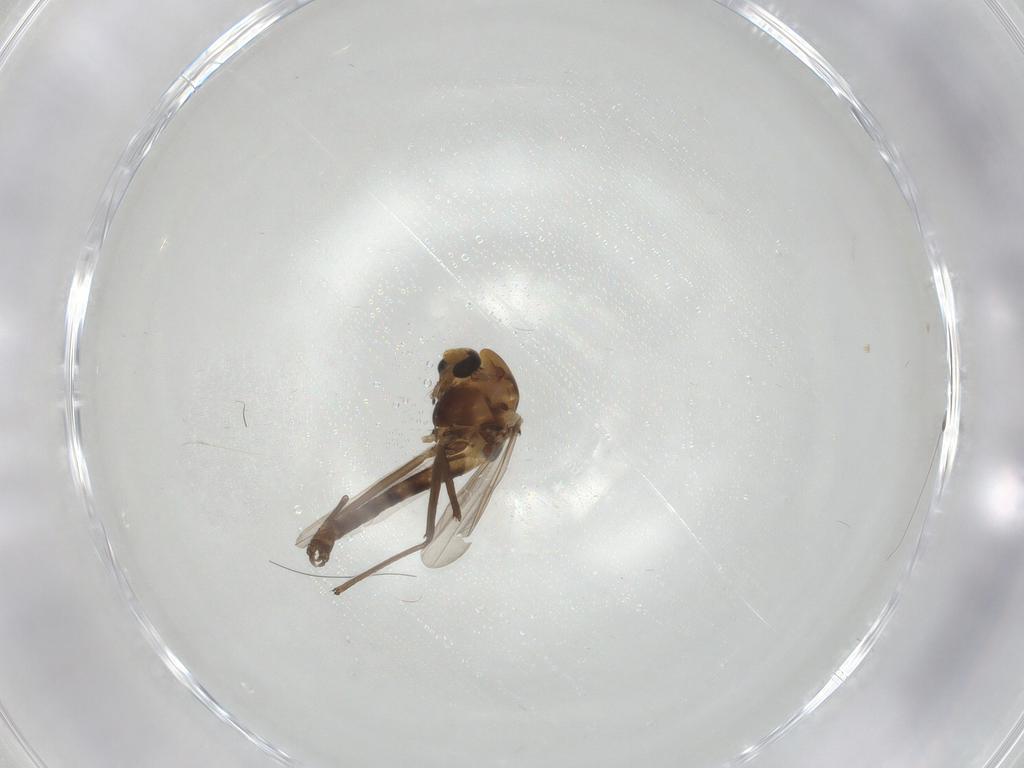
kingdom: Animalia
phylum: Arthropoda
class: Insecta
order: Diptera
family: Chironomidae
